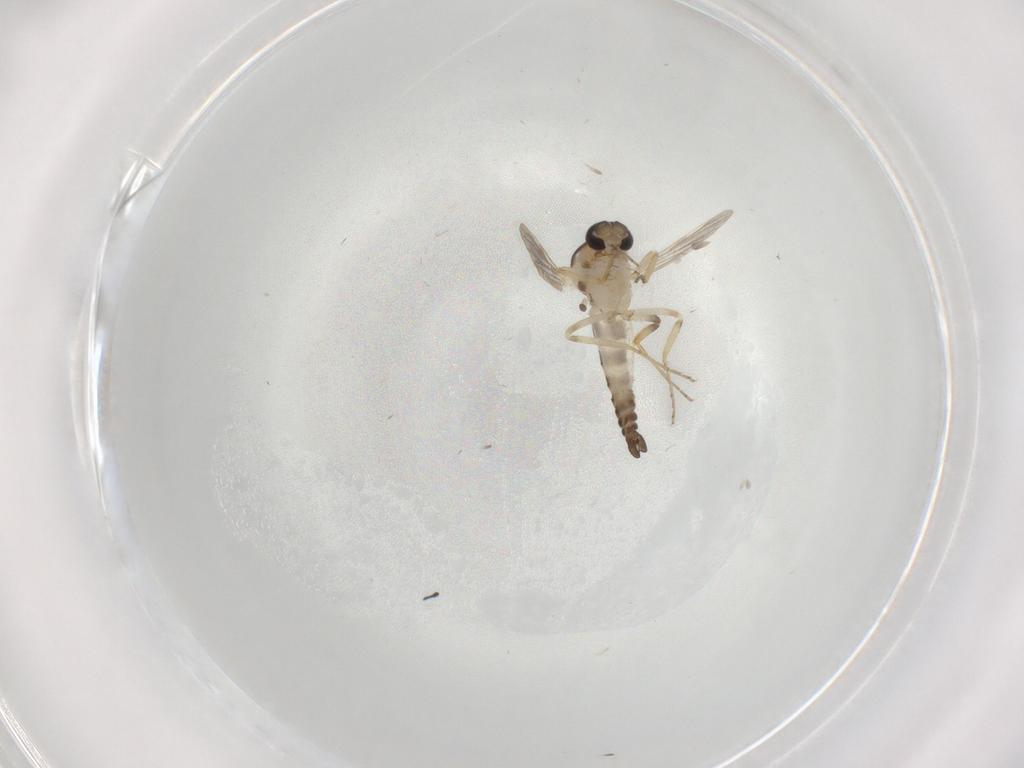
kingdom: Animalia
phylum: Arthropoda
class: Insecta
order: Diptera
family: Ceratopogonidae
